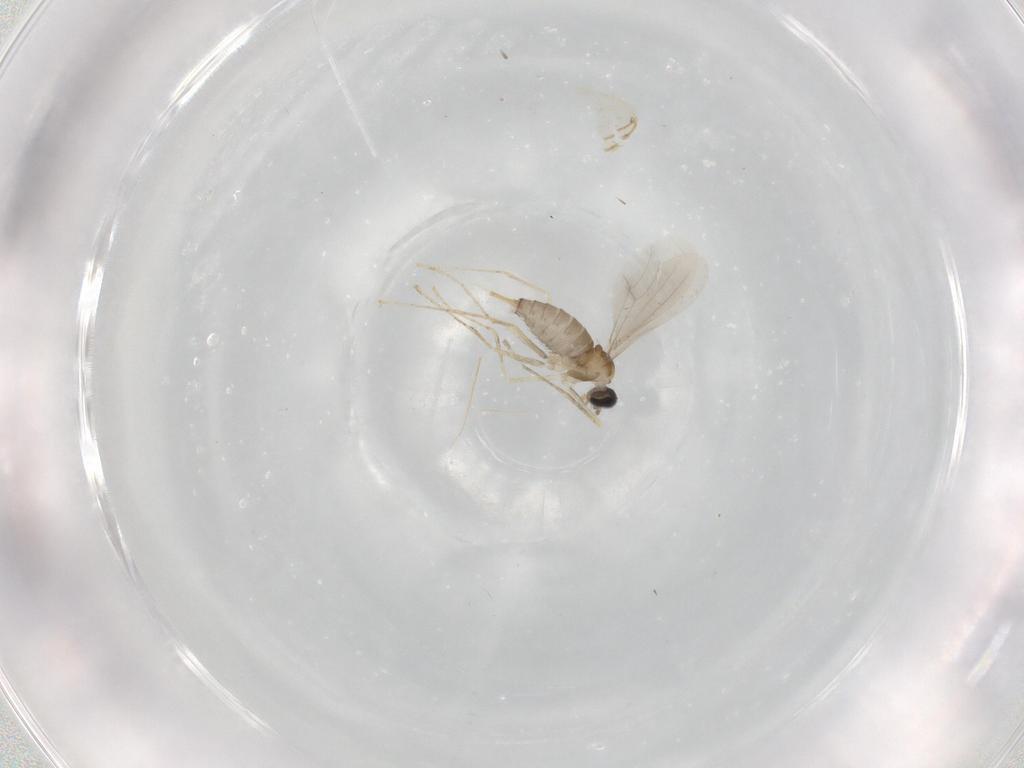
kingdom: Animalia
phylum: Arthropoda
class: Insecta
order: Diptera
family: Cecidomyiidae
